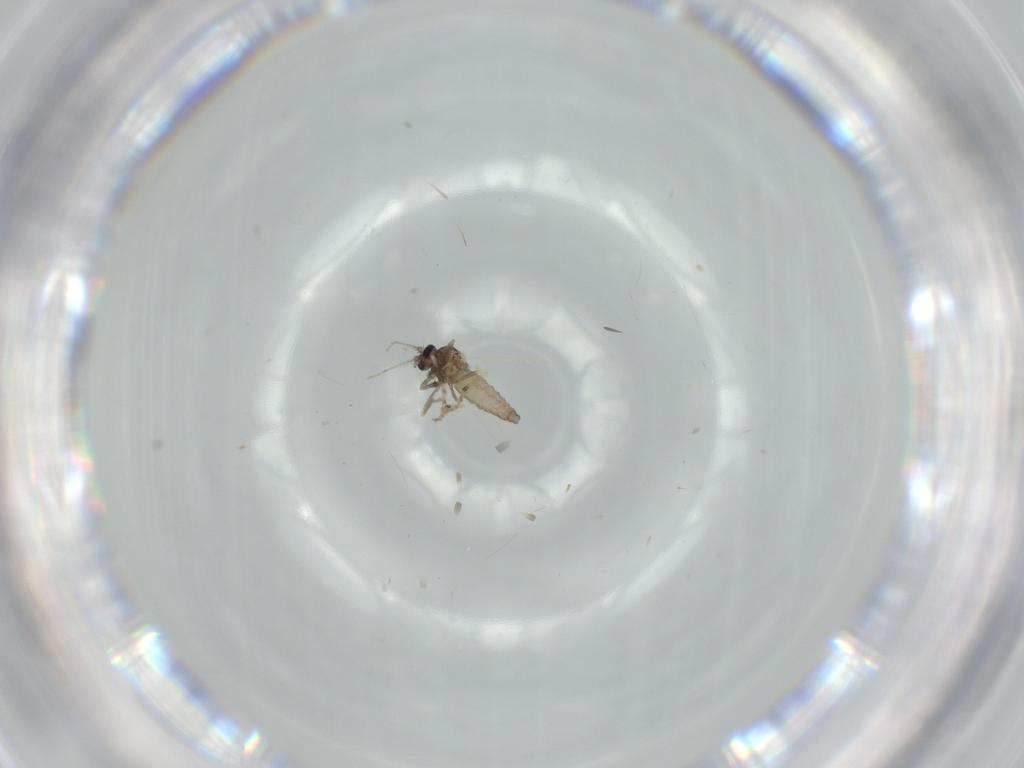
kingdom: Animalia
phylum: Arthropoda
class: Insecta
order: Diptera
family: Ceratopogonidae
